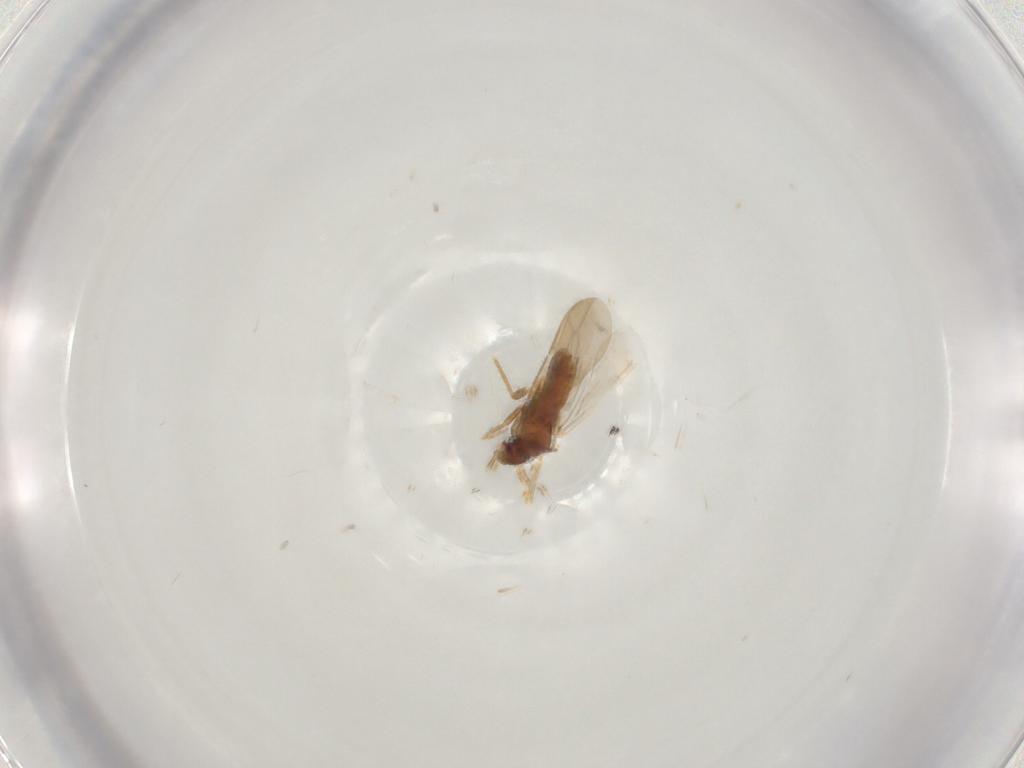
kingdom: Animalia
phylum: Arthropoda
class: Insecta
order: Hemiptera
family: Ceratocombidae
